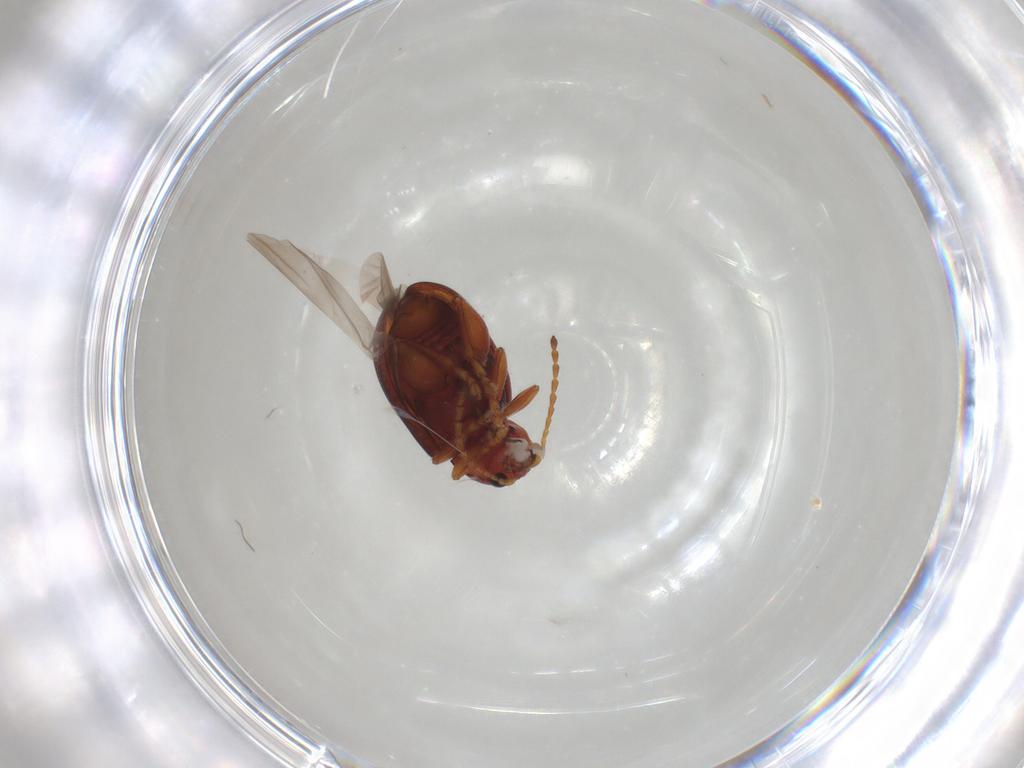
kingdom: Animalia
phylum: Arthropoda
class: Insecta
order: Coleoptera
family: Chrysomelidae
